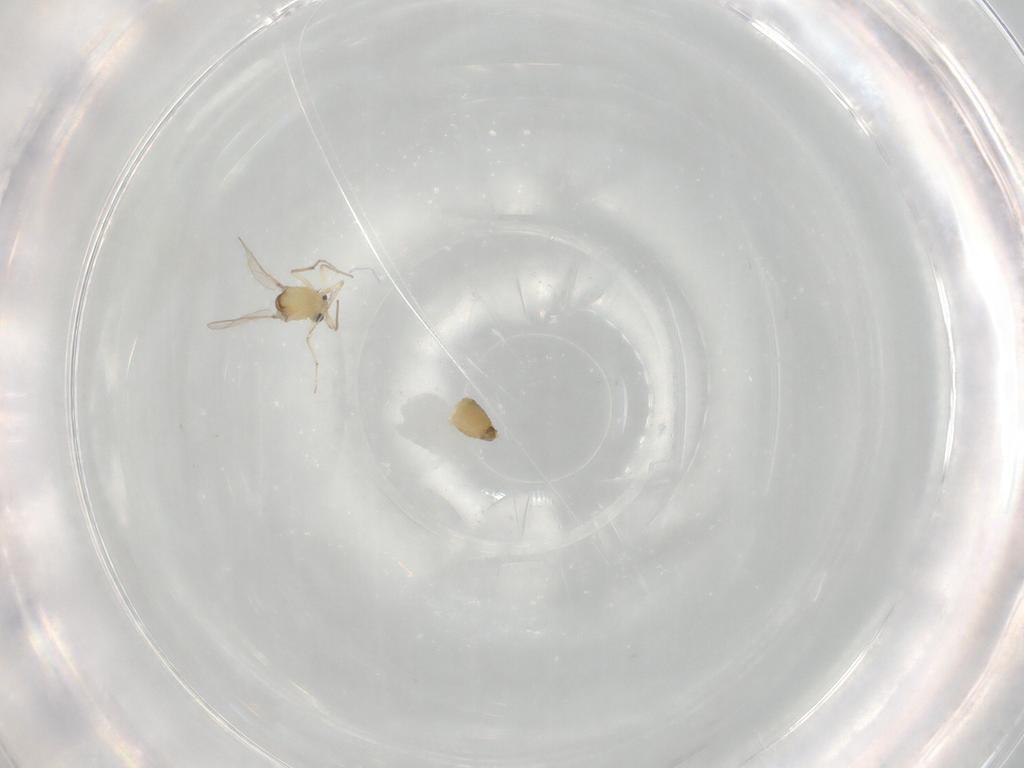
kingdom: Animalia
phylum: Arthropoda
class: Insecta
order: Diptera
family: Chironomidae
